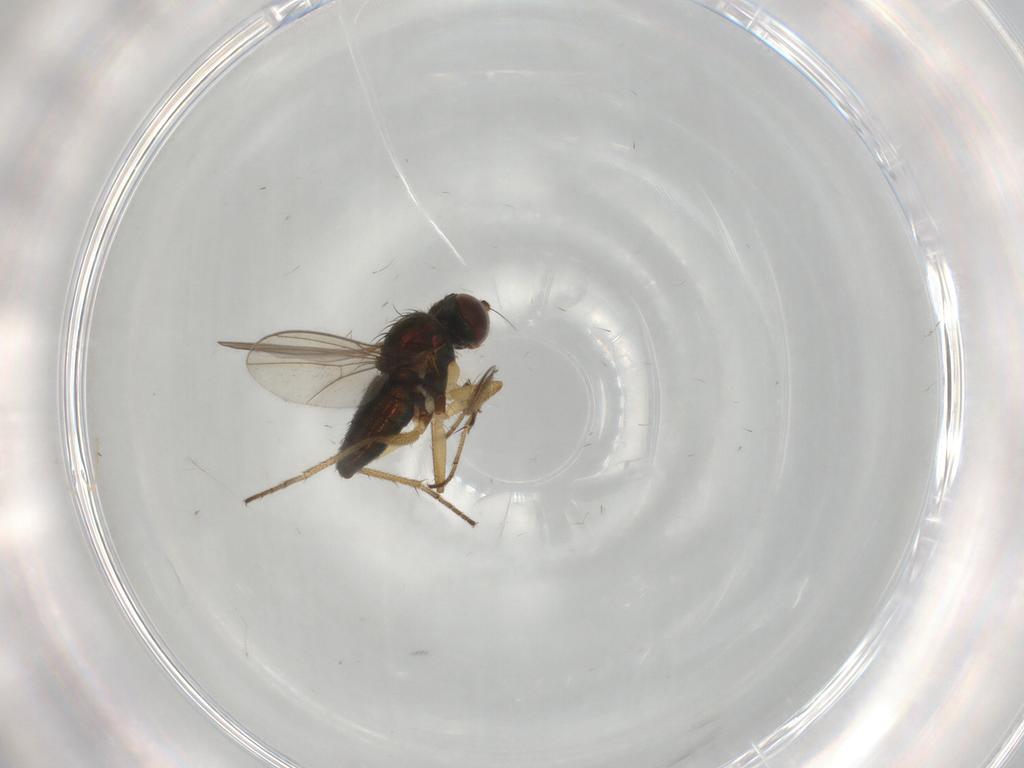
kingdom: Animalia
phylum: Arthropoda
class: Insecta
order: Diptera
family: Ceratopogonidae
